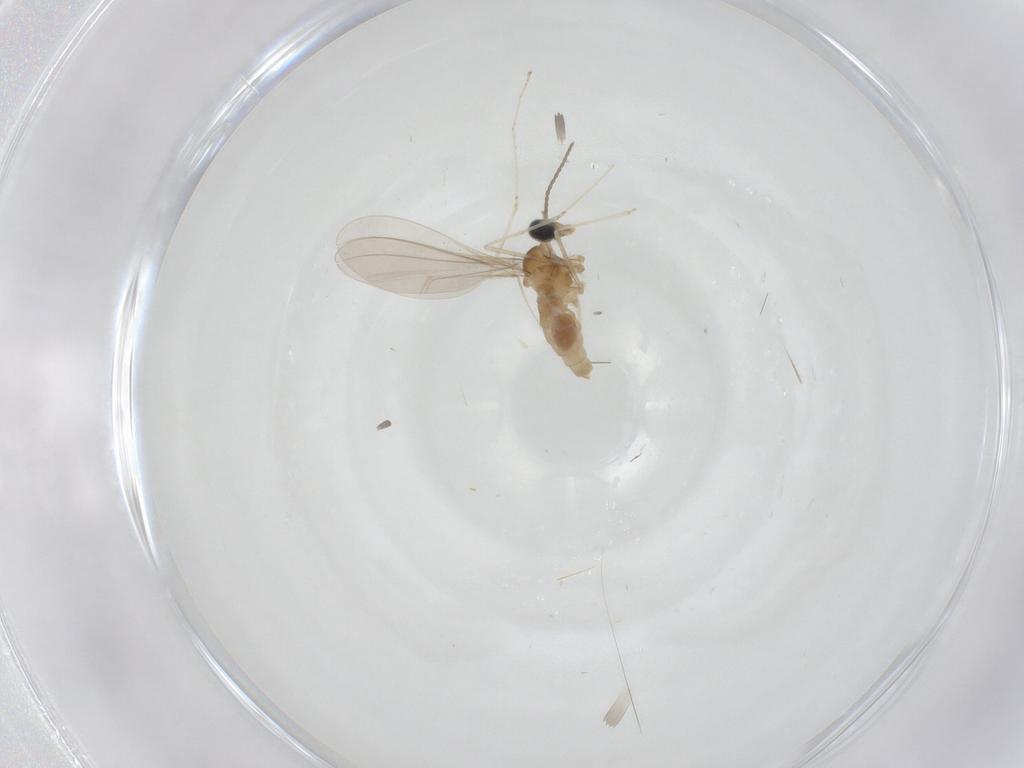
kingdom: Animalia
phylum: Arthropoda
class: Insecta
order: Diptera
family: Cecidomyiidae
